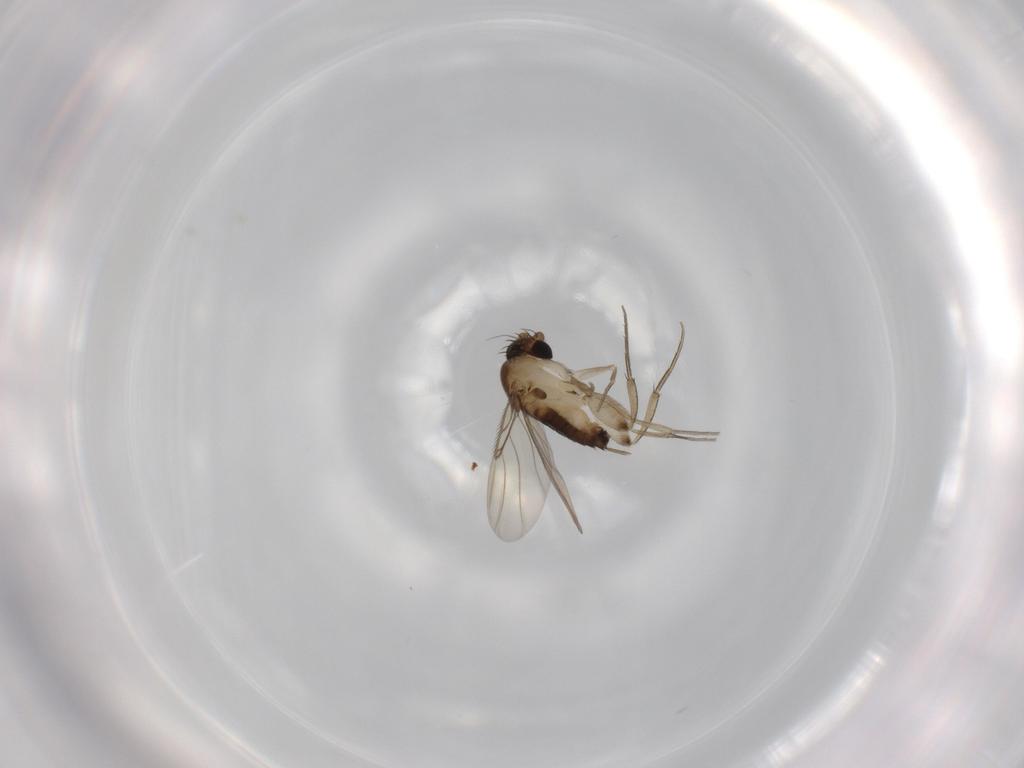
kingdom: Animalia
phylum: Arthropoda
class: Insecta
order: Diptera
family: Phoridae
